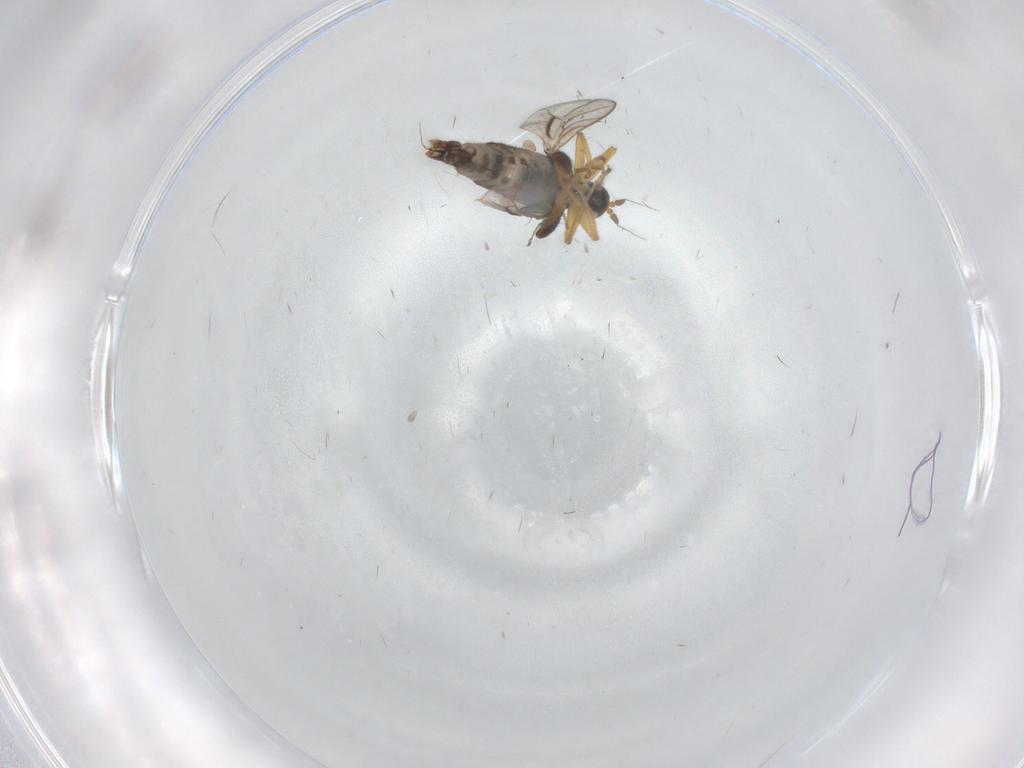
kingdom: Animalia
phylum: Arthropoda
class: Insecta
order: Diptera
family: Hybotidae
